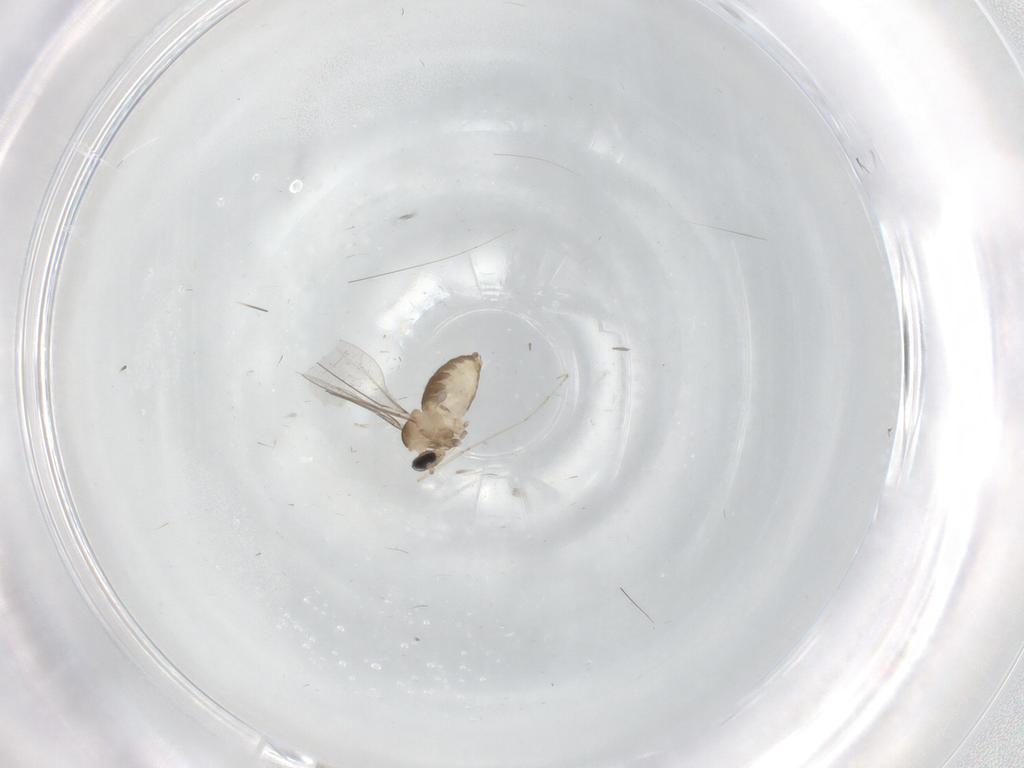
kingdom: Animalia
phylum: Arthropoda
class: Insecta
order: Diptera
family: Cecidomyiidae
